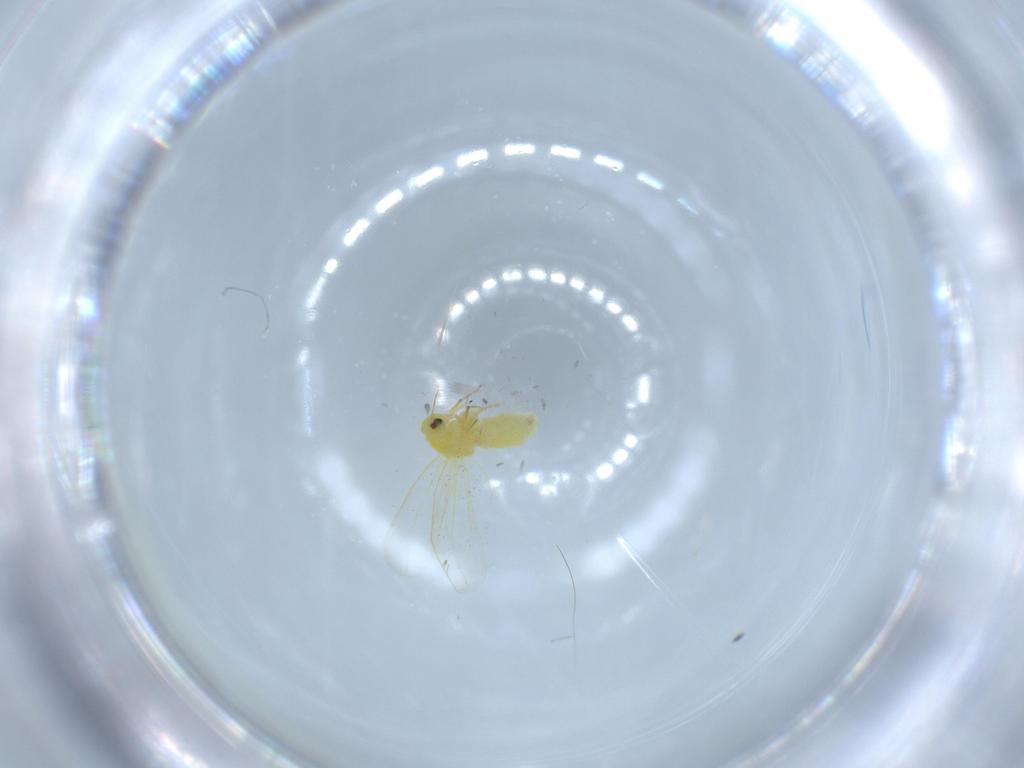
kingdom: Animalia
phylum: Arthropoda
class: Insecta
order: Hemiptera
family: Aleyrodidae
